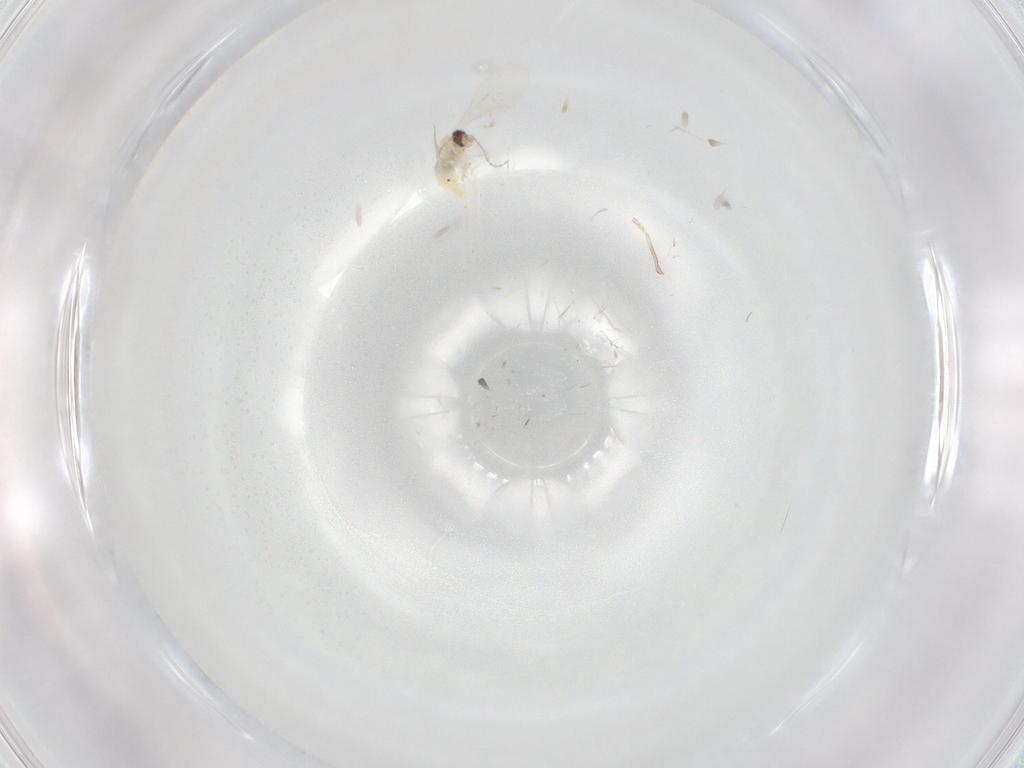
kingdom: Animalia
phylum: Arthropoda
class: Insecta
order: Diptera
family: Cecidomyiidae
